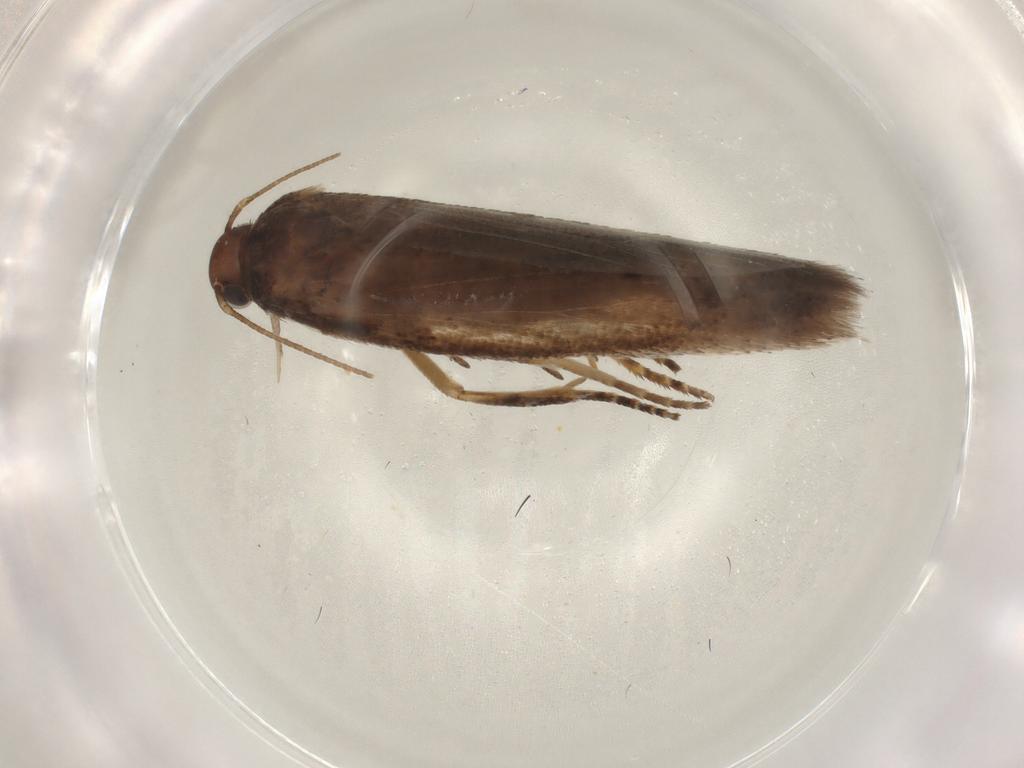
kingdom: Animalia
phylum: Arthropoda
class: Insecta
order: Lepidoptera
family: Gelechiidae
